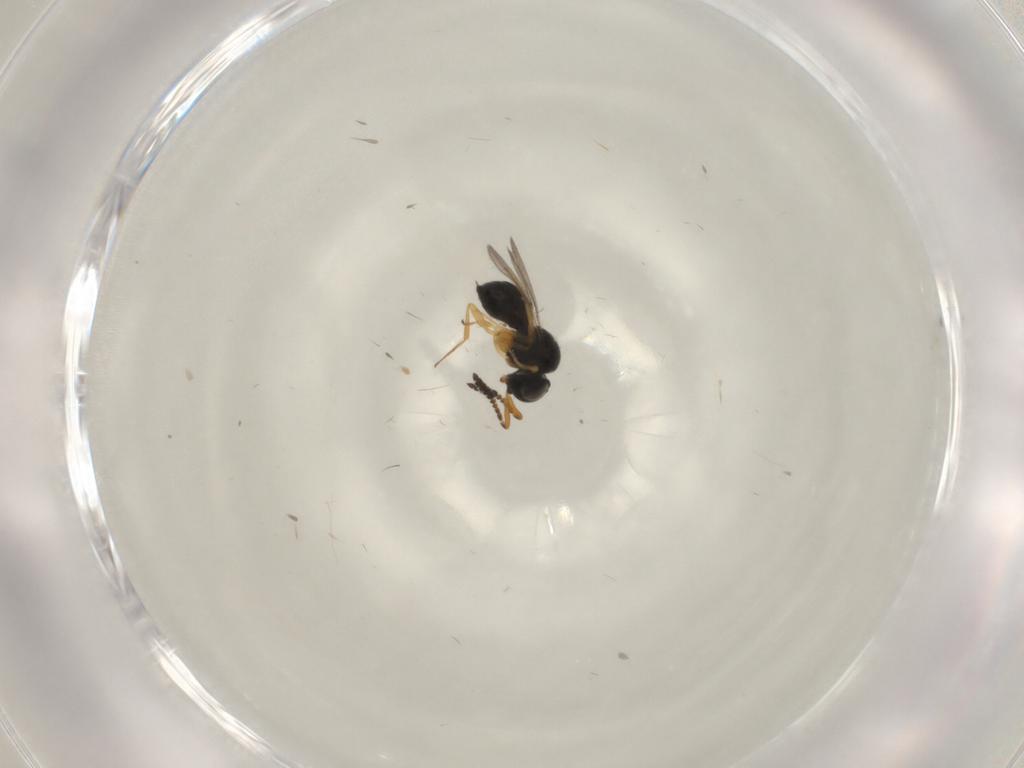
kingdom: Animalia
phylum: Arthropoda
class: Insecta
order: Hymenoptera
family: Scelionidae
